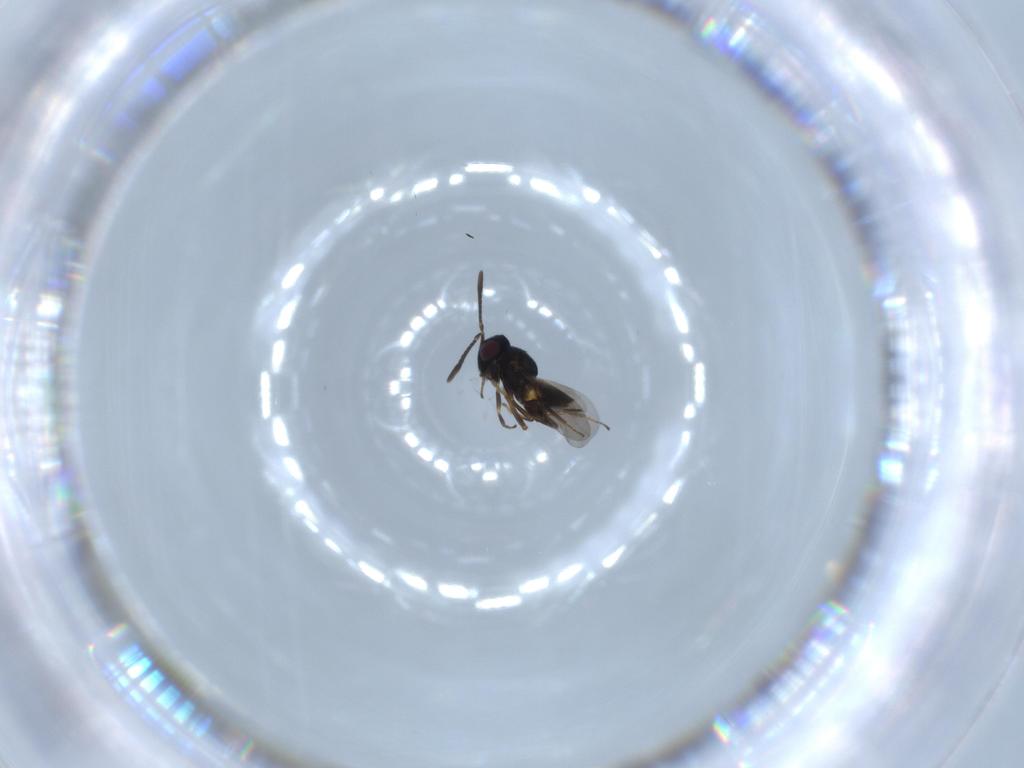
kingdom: Animalia
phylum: Arthropoda
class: Insecta
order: Hymenoptera
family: Encyrtidae
